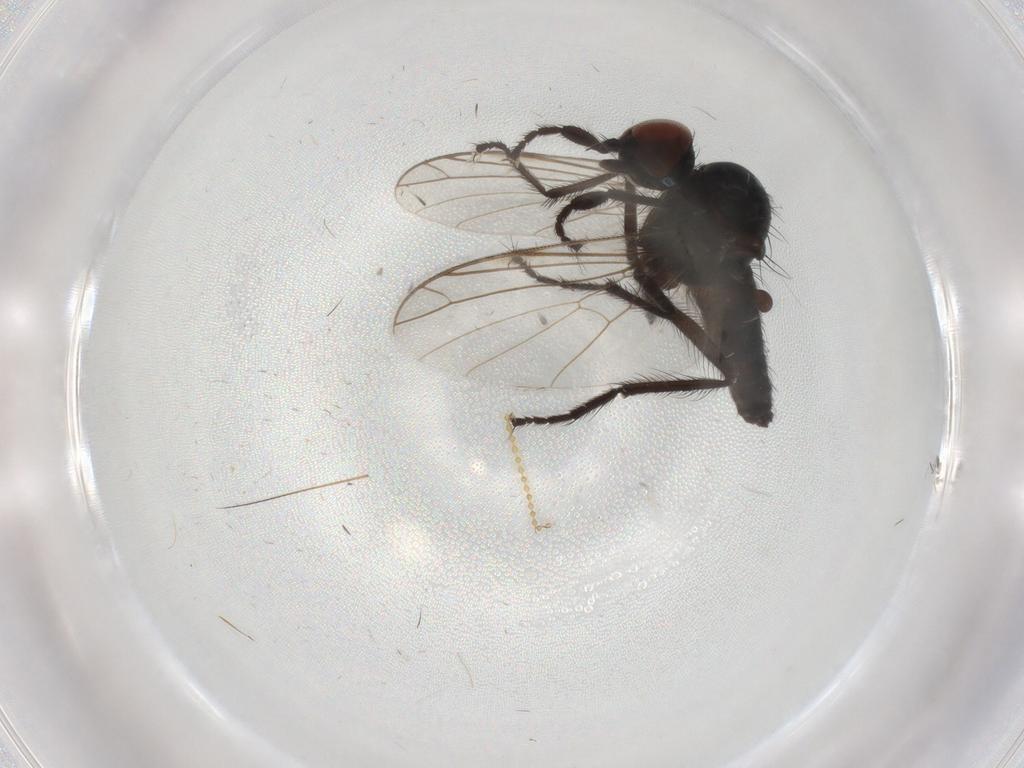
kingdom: Animalia
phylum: Arthropoda
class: Insecta
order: Diptera
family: Empididae
